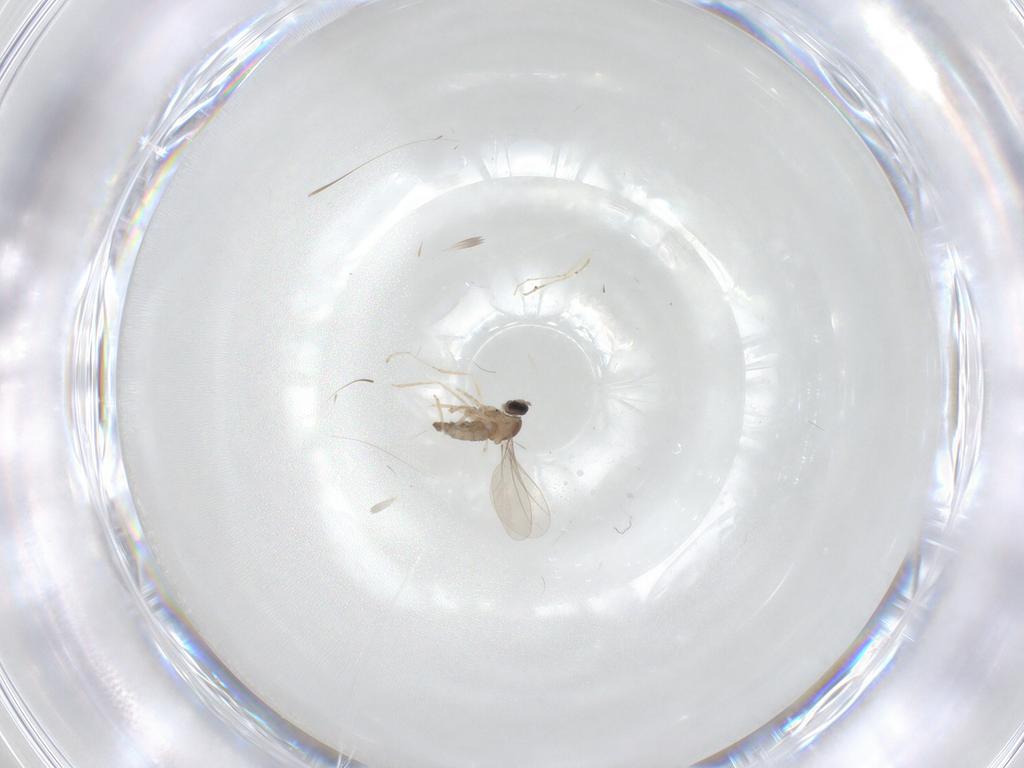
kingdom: Animalia
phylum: Arthropoda
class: Insecta
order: Diptera
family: Cecidomyiidae
